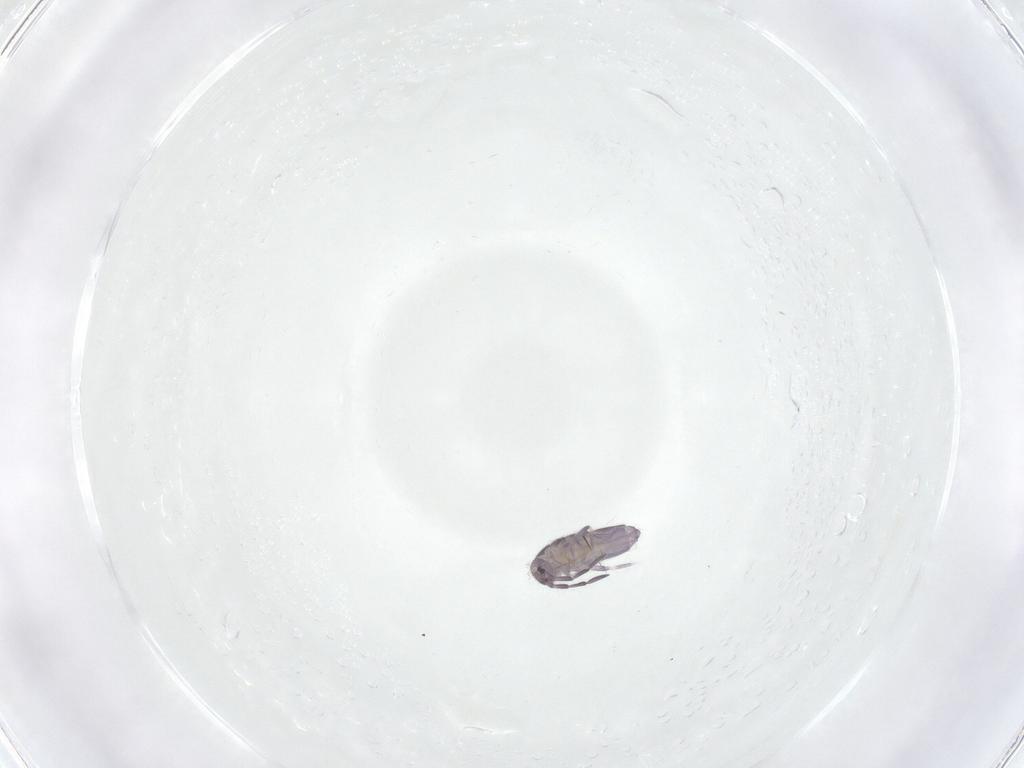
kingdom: Animalia
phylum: Arthropoda
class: Collembola
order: Entomobryomorpha
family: Entomobryidae
